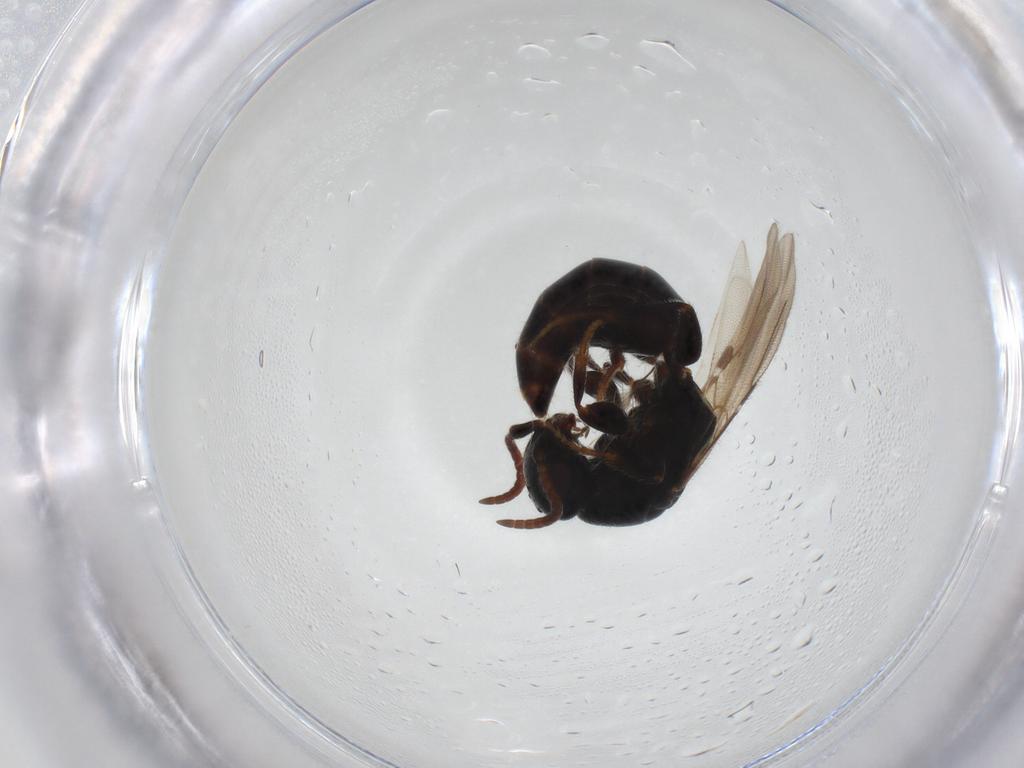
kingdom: Animalia
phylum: Arthropoda
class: Insecta
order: Hymenoptera
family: Bethylidae
